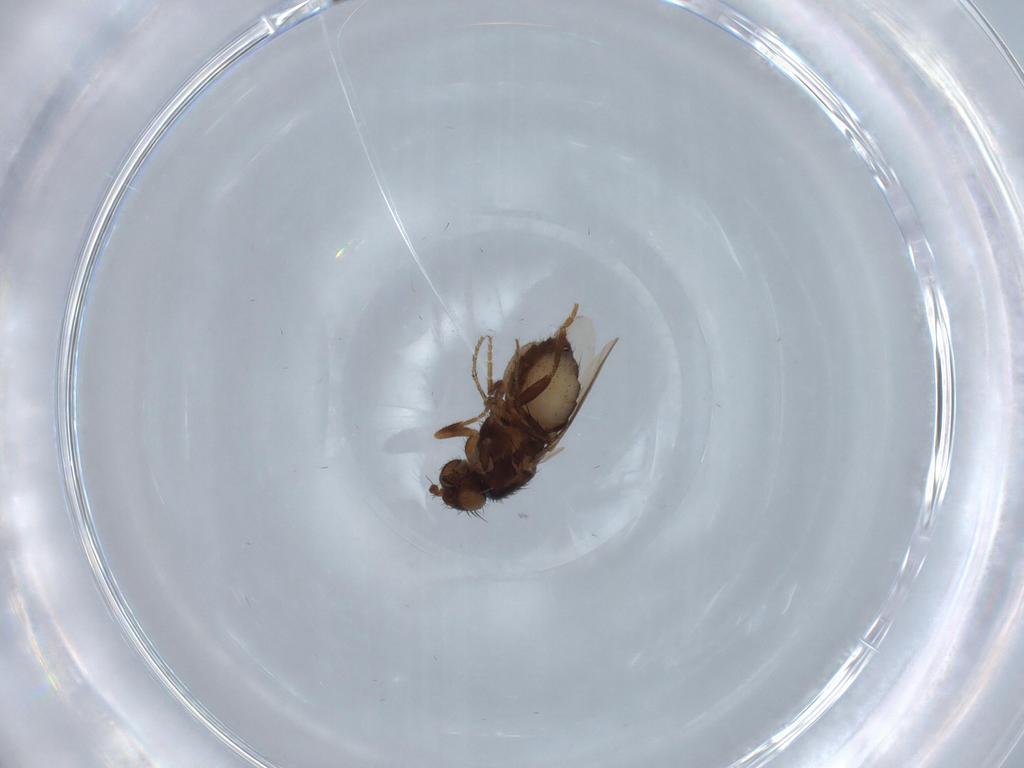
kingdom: Animalia
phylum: Arthropoda
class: Insecta
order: Diptera
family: Sphaeroceridae
